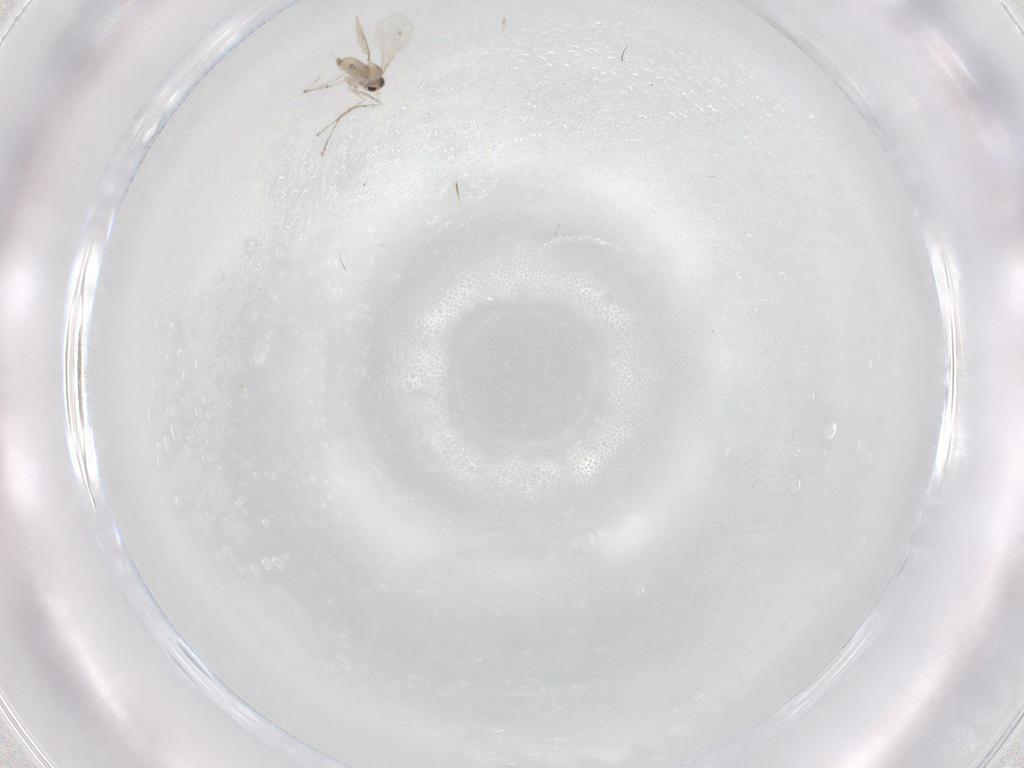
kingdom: Animalia
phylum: Arthropoda
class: Insecta
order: Diptera
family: Cecidomyiidae
